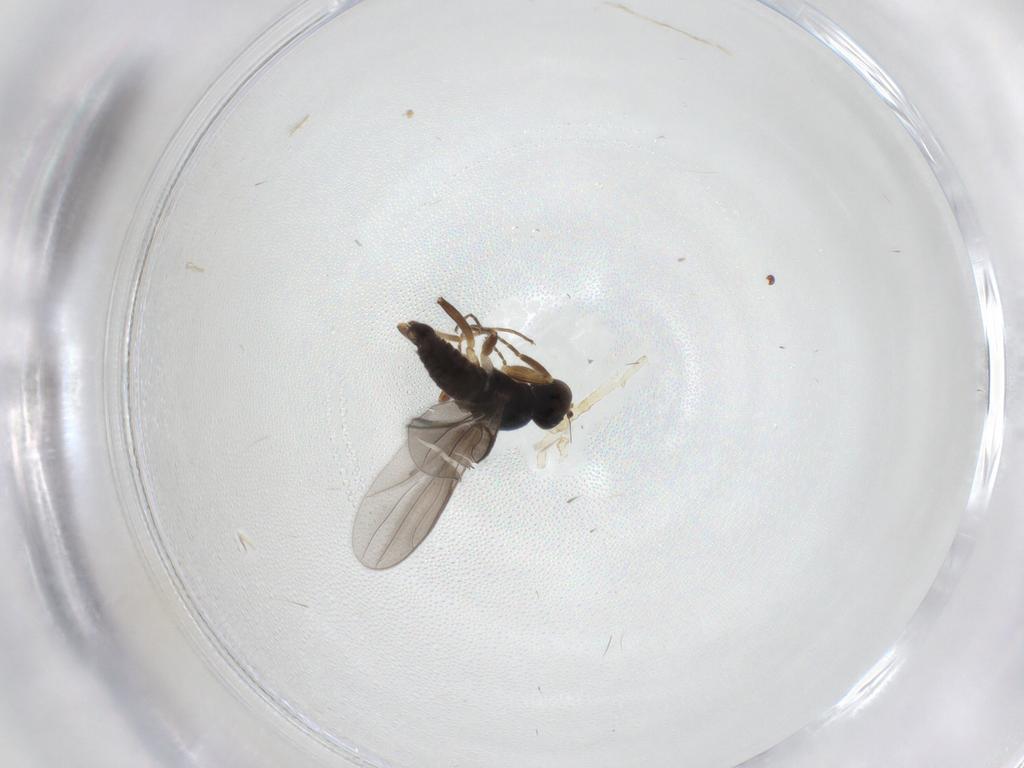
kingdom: Animalia
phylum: Arthropoda
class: Insecta
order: Diptera
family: Hybotidae
